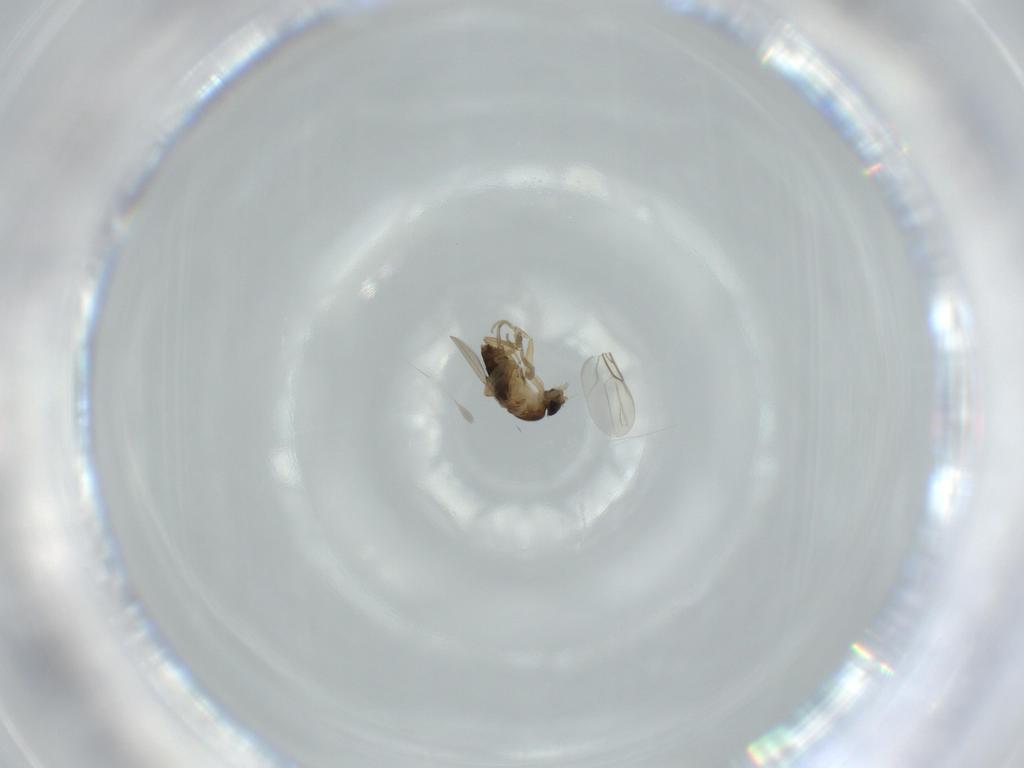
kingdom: Animalia
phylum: Arthropoda
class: Insecta
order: Diptera
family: Phoridae
